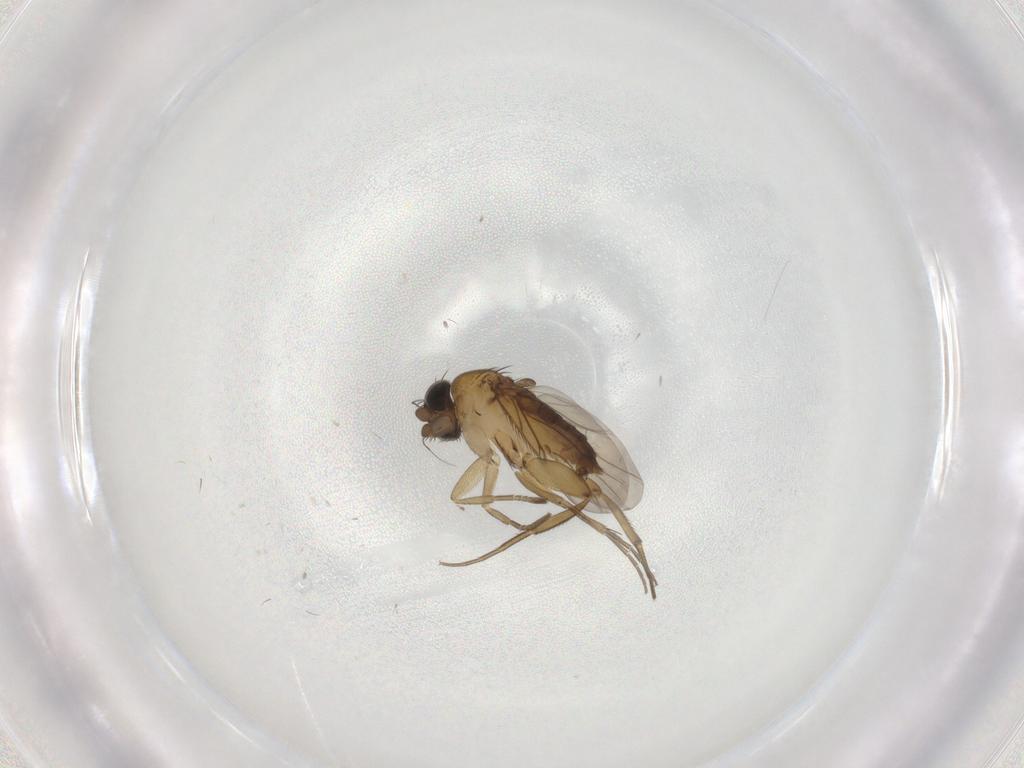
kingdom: Animalia
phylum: Arthropoda
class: Insecta
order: Diptera
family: Phoridae
